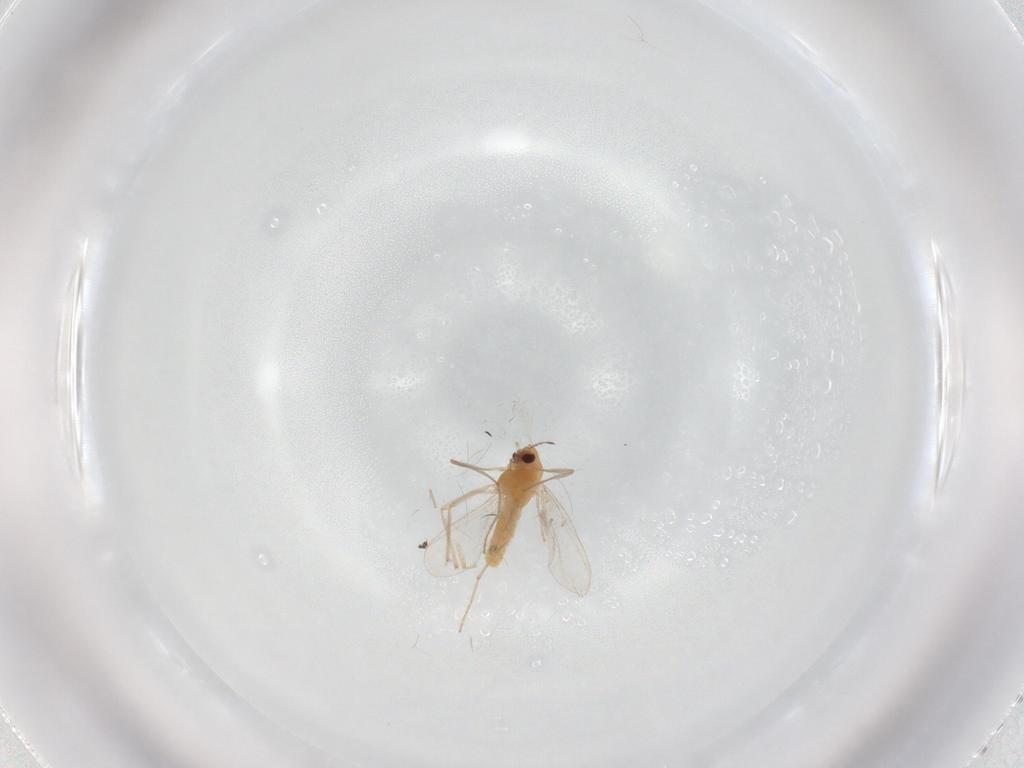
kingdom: Animalia
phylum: Arthropoda
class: Insecta
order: Diptera
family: Chironomidae
